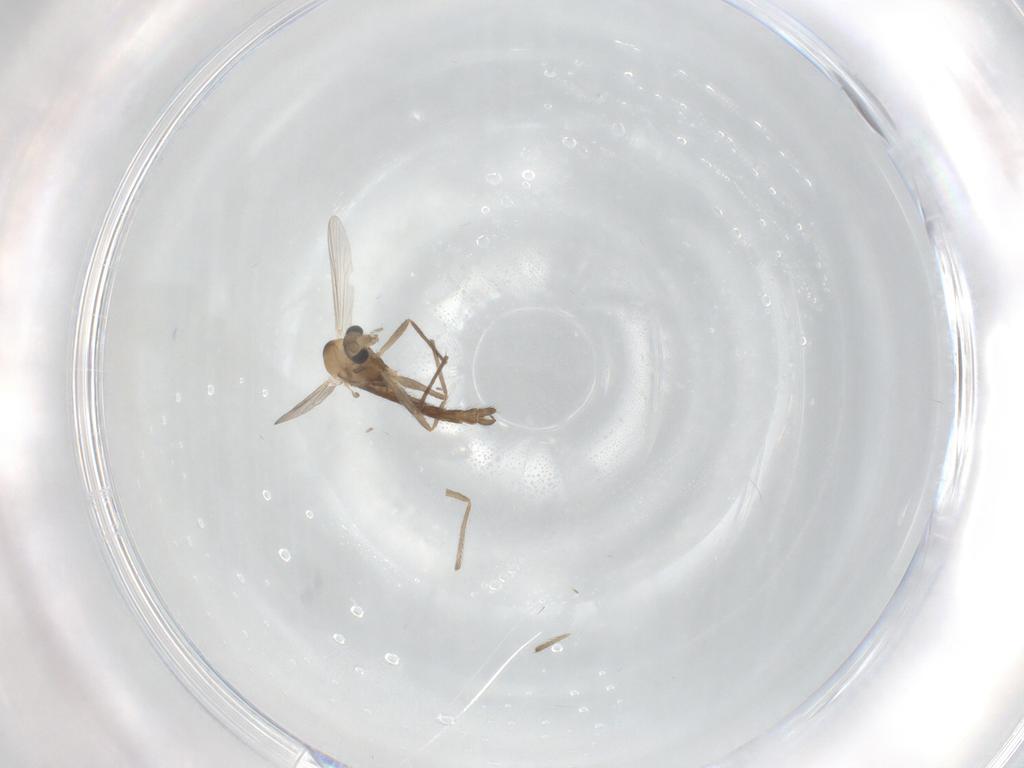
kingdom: Animalia
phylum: Arthropoda
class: Insecta
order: Diptera
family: Chironomidae
